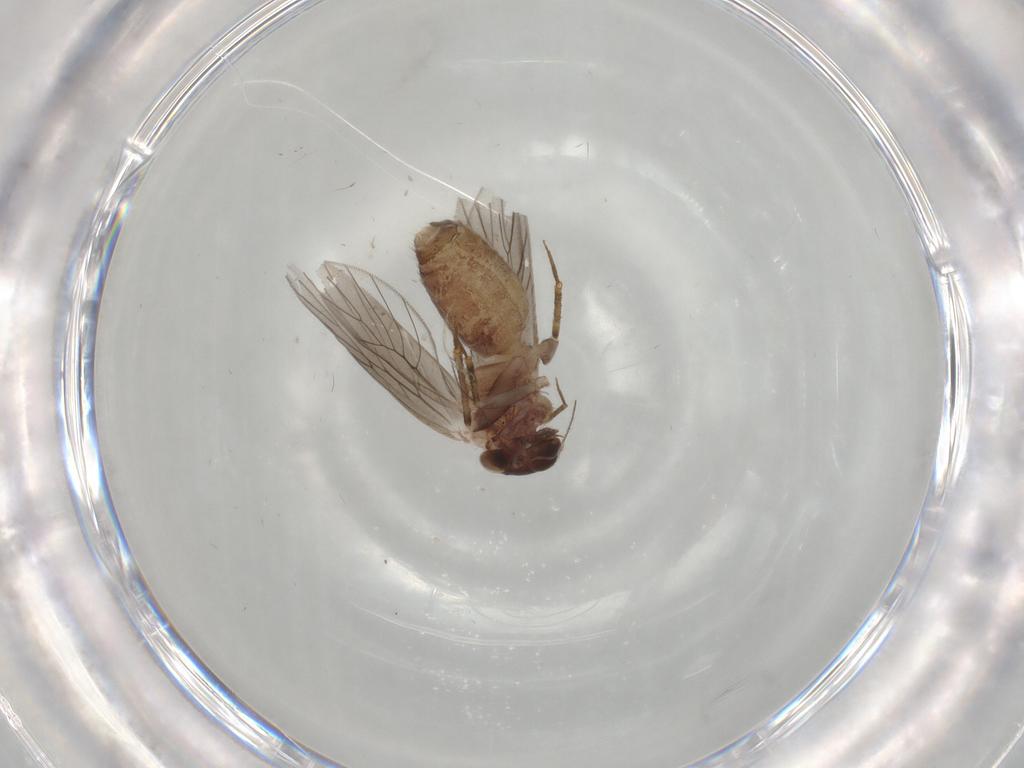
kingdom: Animalia
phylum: Arthropoda
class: Insecta
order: Psocodea
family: Lepidopsocidae
